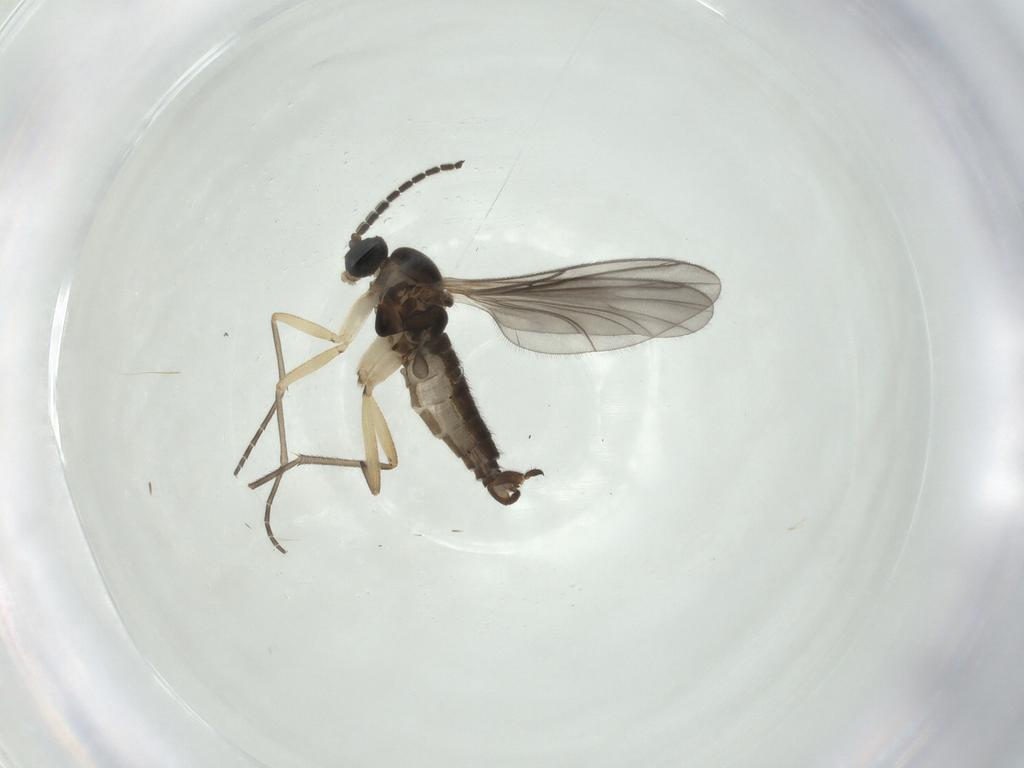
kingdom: Animalia
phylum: Arthropoda
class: Insecta
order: Diptera
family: Sciaridae
